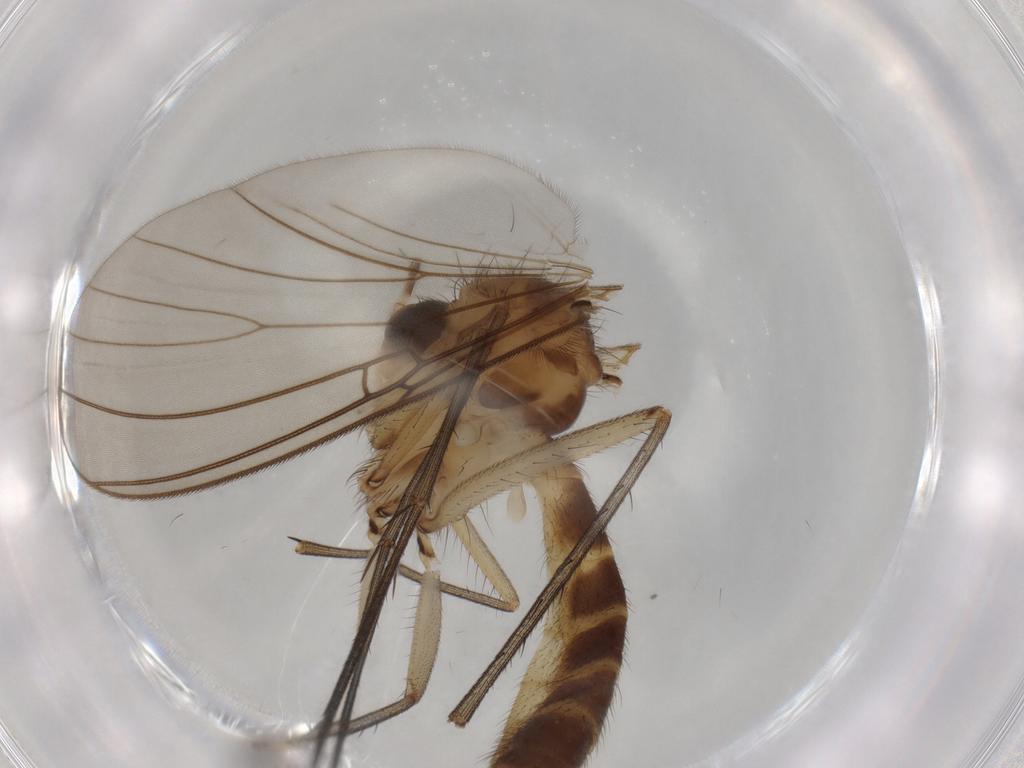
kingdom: Animalia
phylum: Arthropoda
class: Insecta
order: Diptera
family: Mycetophilidae
